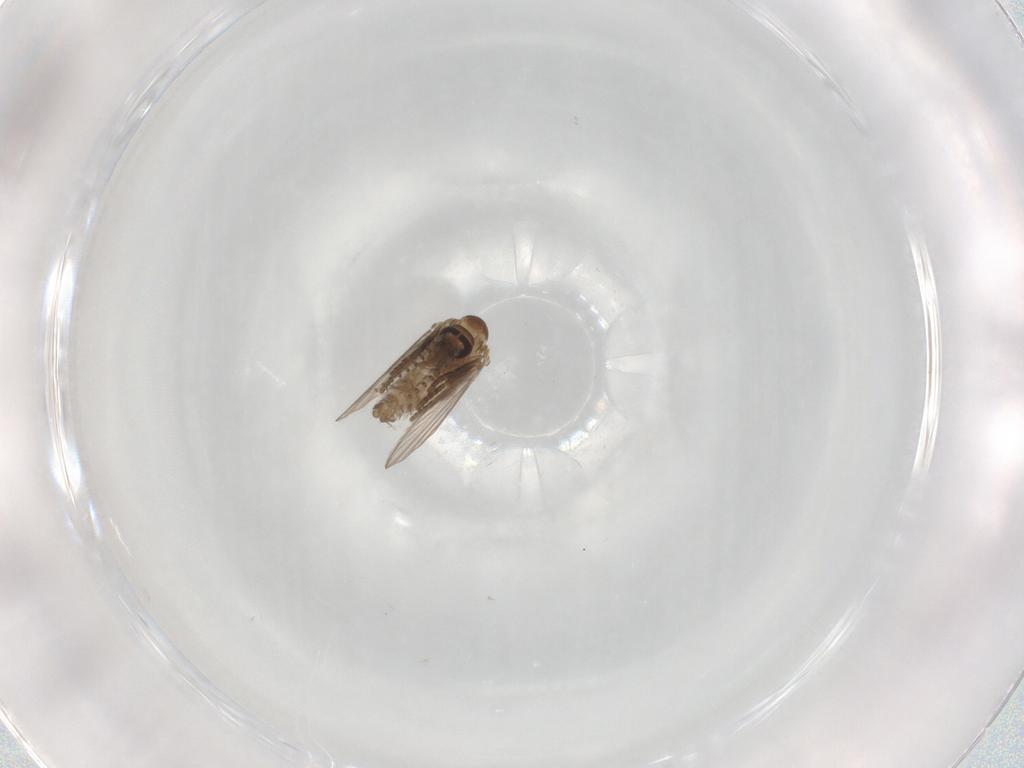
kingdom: Animalia
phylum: Arthropoda
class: Insecta
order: Diptera
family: Psychodidae
